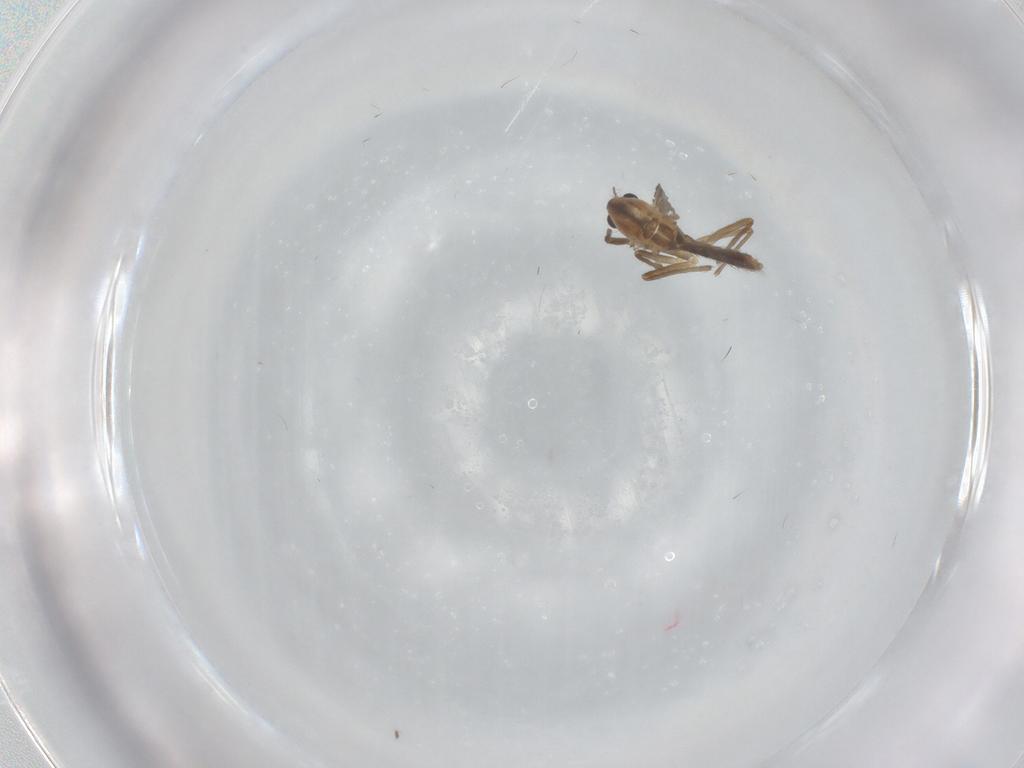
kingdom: Animalia
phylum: Arthropoda
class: Insecta
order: Diptera
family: Chironomidae
